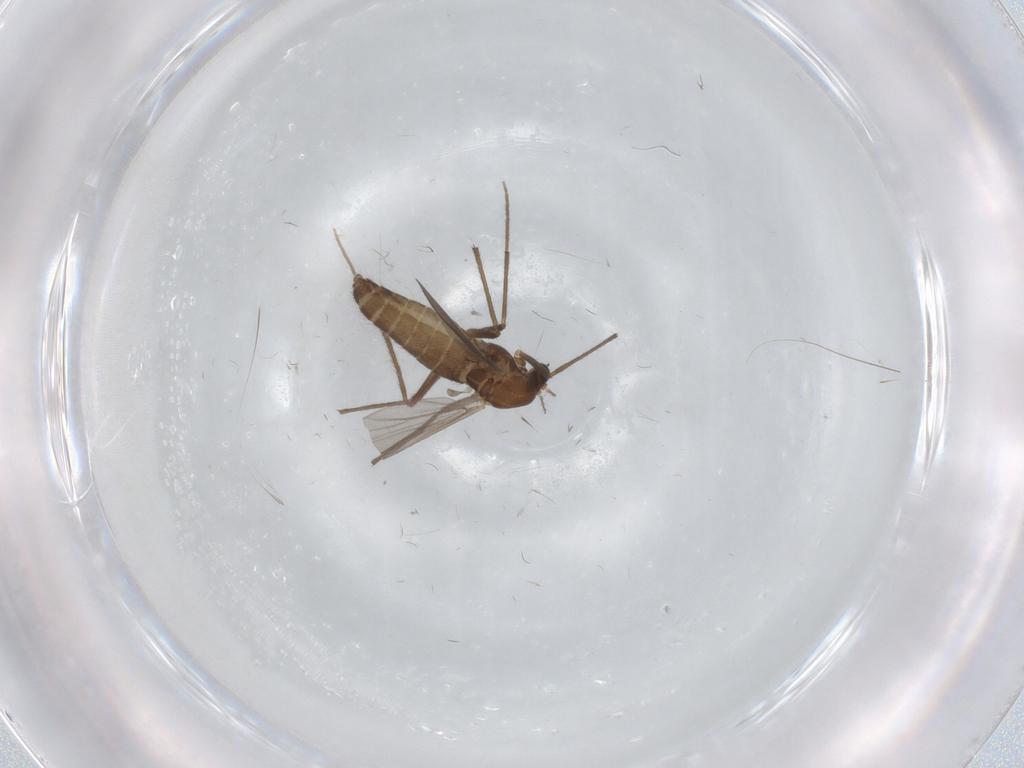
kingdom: Animalia
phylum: Arthropoda
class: Insecta
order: Diptera
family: Chironomidae
